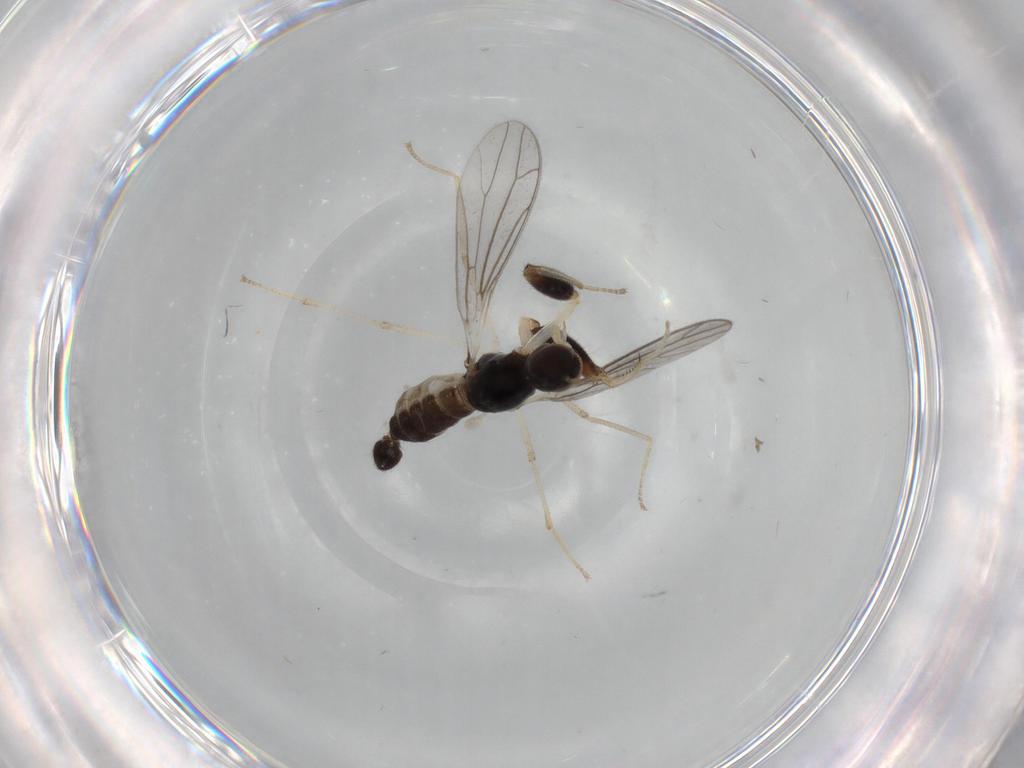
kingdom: Animalia
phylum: Arthropoda
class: Insecta
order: Diptera
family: Empididae
